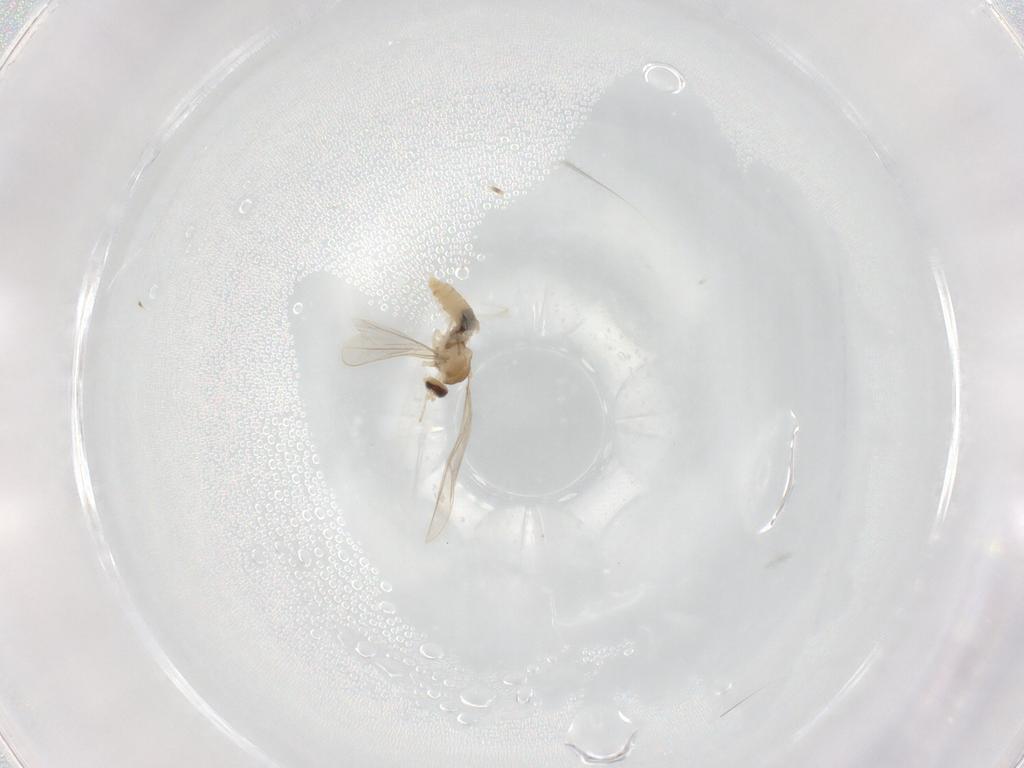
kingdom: Animalia
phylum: Arthropoda
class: Insecta
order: Diptera
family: Cecidomyiidae
